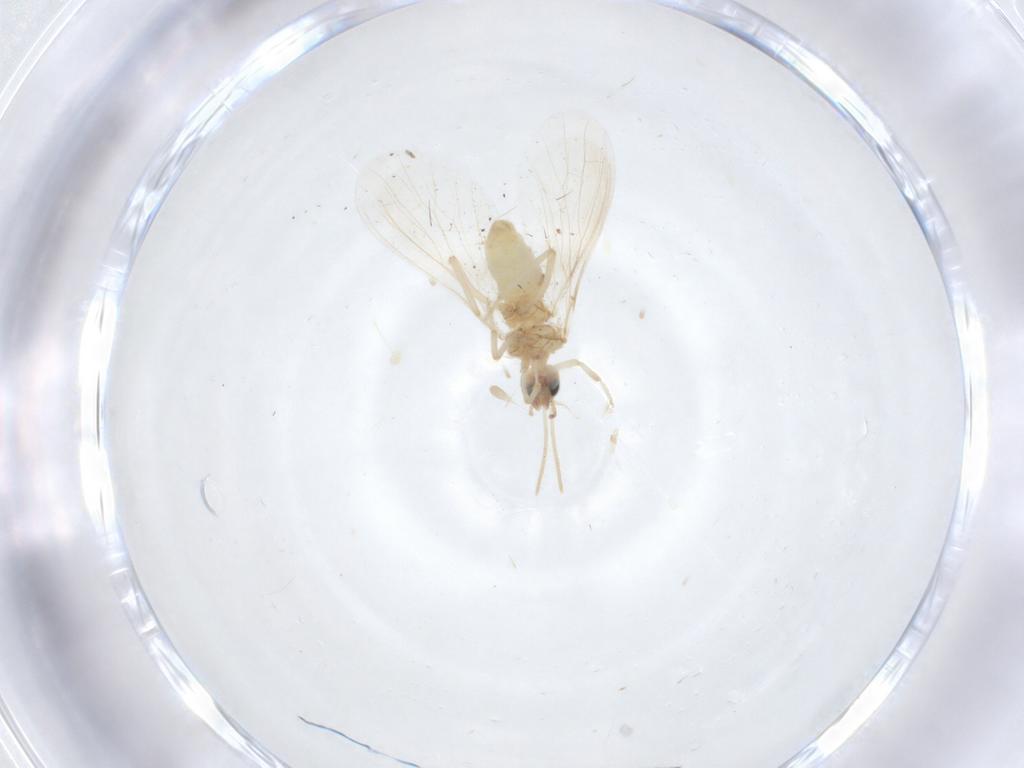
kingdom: Animalia
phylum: Arthropoda
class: Insecta
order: Neuroptera
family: Coniopterygidae
